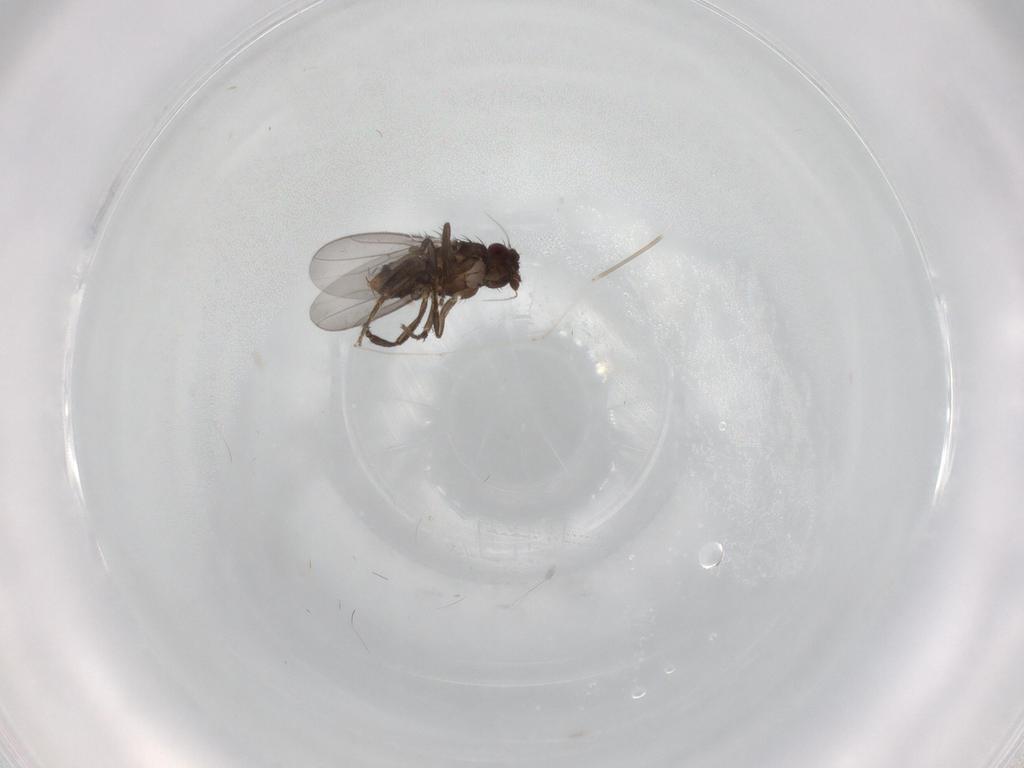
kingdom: Animalia
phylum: Arthropoda
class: Insecta
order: Diptera
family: Sphaeroceridae
